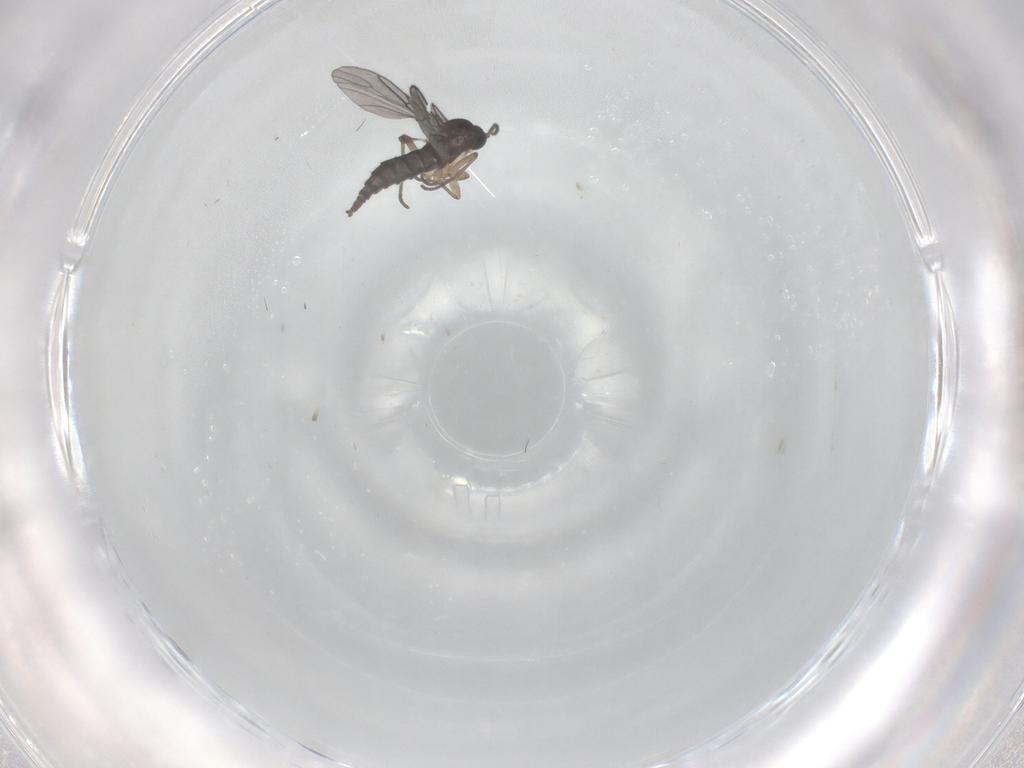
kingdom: Animalia
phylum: Arthropoda
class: Insecta
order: Diptera
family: Sciaridae
